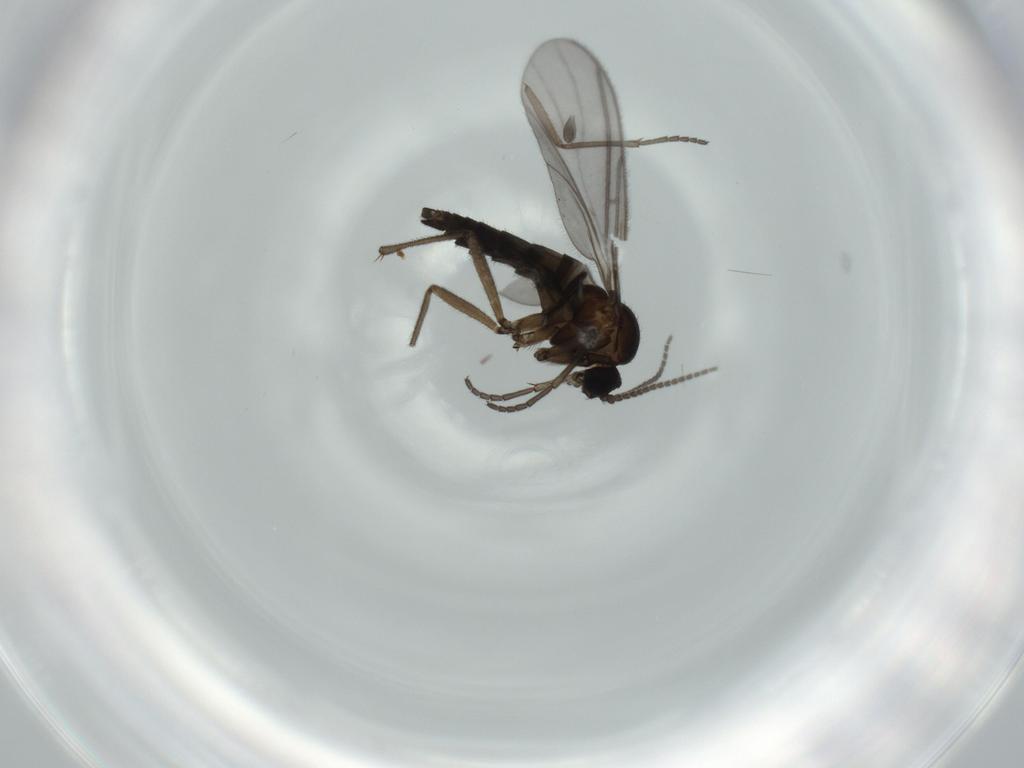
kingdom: Animalia
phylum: Arthropoda
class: Insecta
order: Diptera
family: Sciaridae
